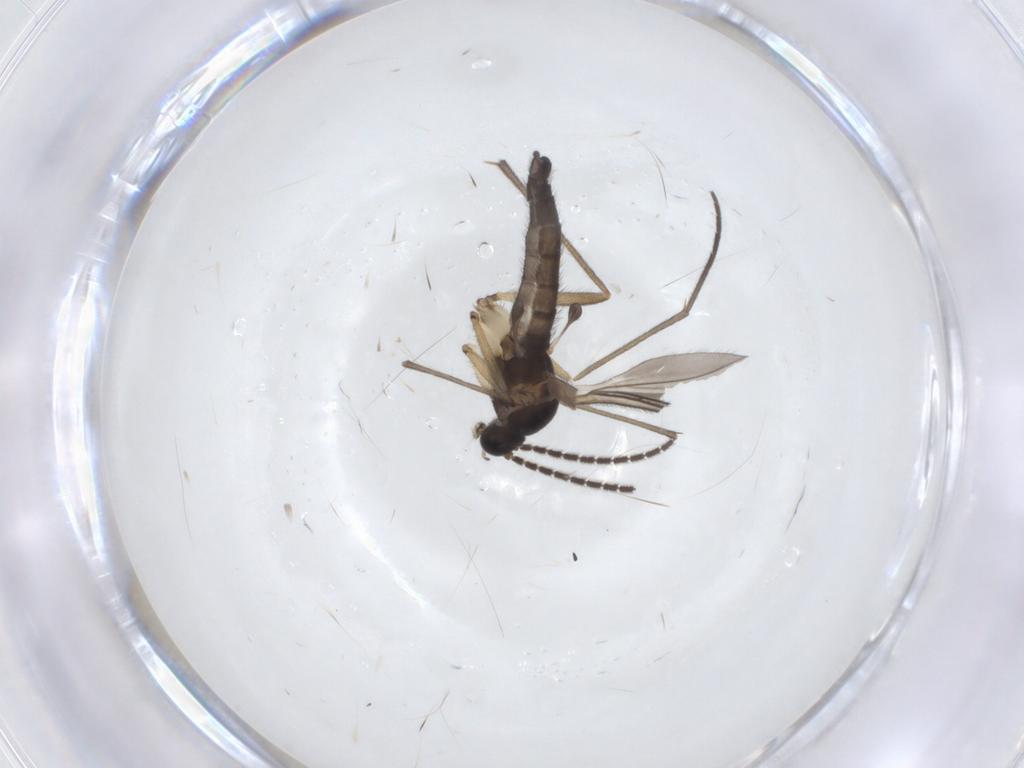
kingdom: Animalia
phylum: Arthropoda
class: Insecta
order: Diptera
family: Sciaridae
